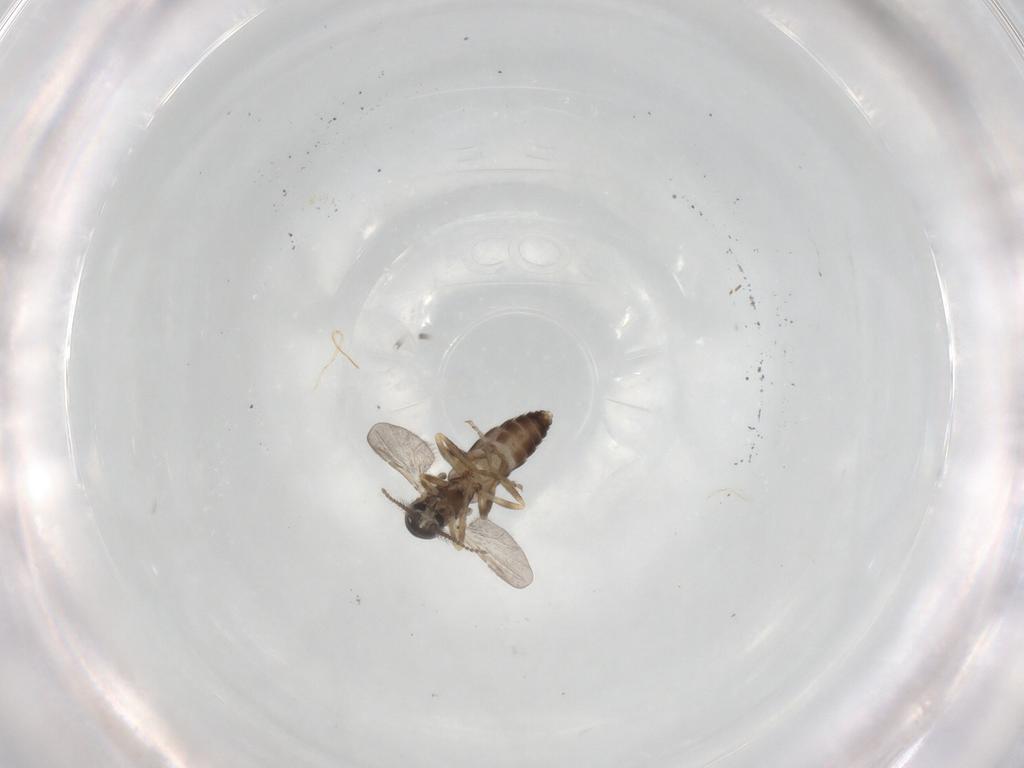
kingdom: Animalia
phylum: Arthropoda
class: Insecta
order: Diptera
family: Ceratopogonidae
